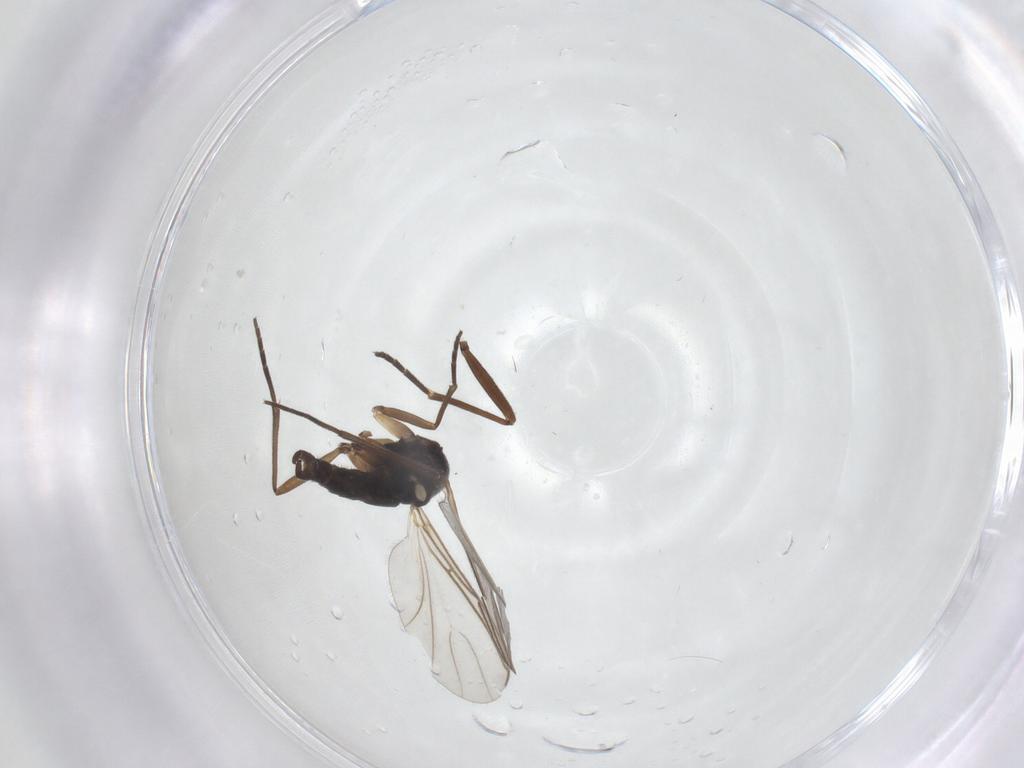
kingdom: Animalia
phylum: Arthropoda
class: Insecta
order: Diptera
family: Sciaridae
